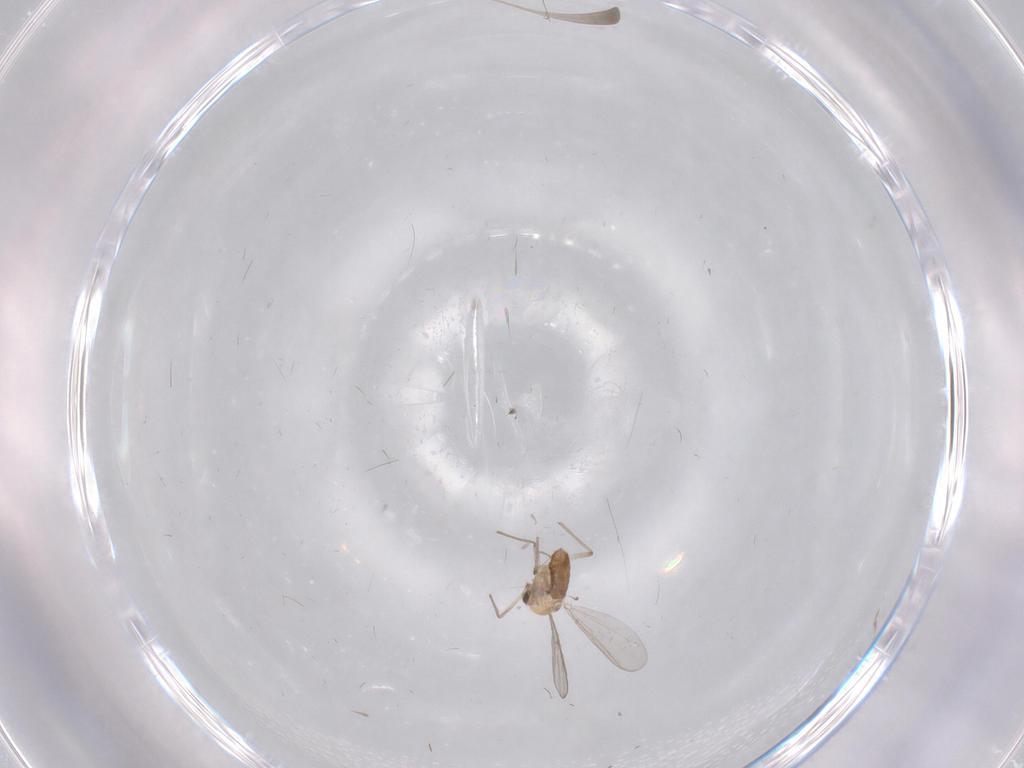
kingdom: Animalia
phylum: Arthropoda
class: Insecta
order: Diptera
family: Chironomidae
